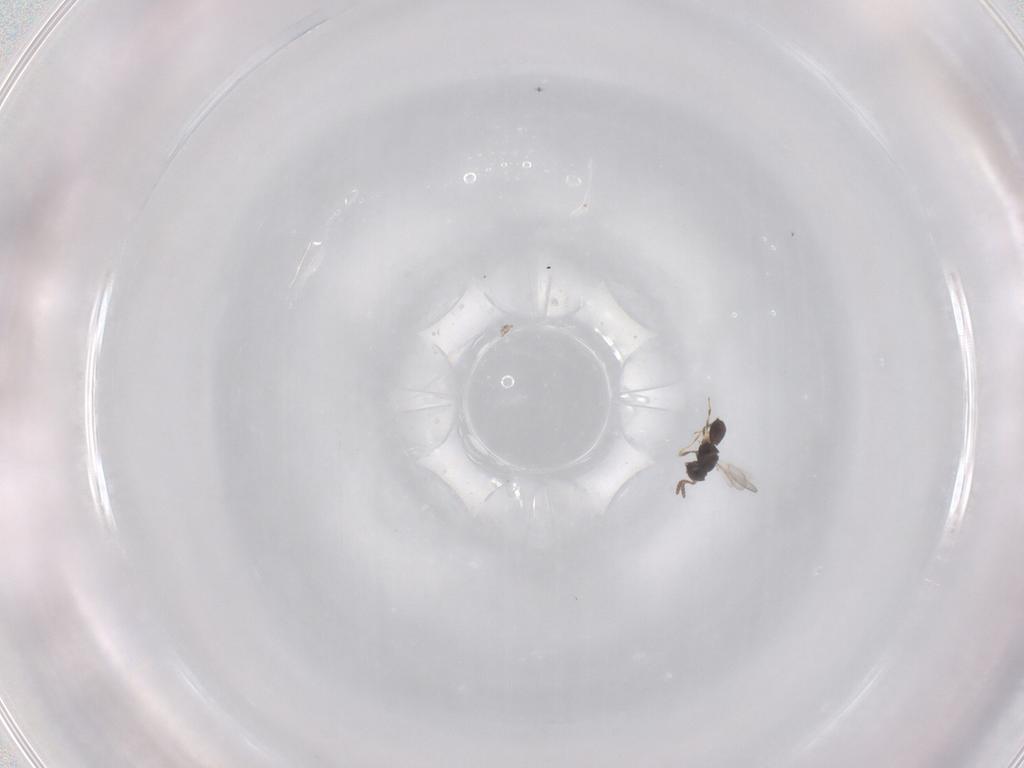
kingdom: Animalia
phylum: Arthropoda
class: Insecta
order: Hymenoptera
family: Scelionidae
